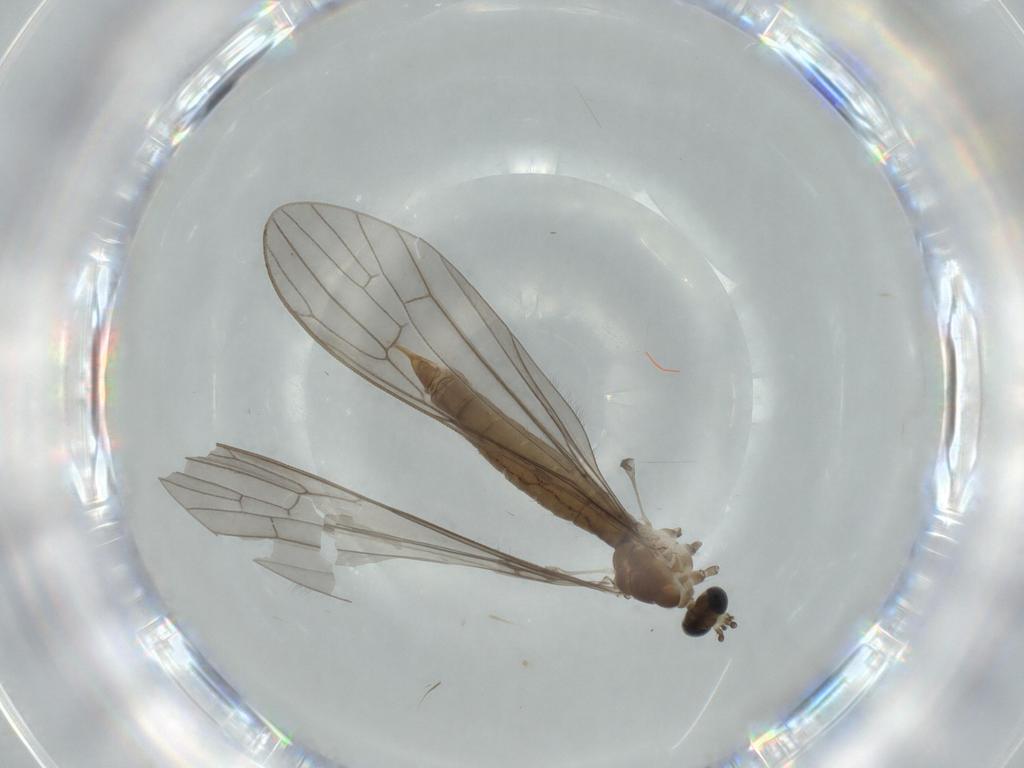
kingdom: Animalia
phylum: Arthropoda
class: Insecta
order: Diptera
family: Limoniidae
